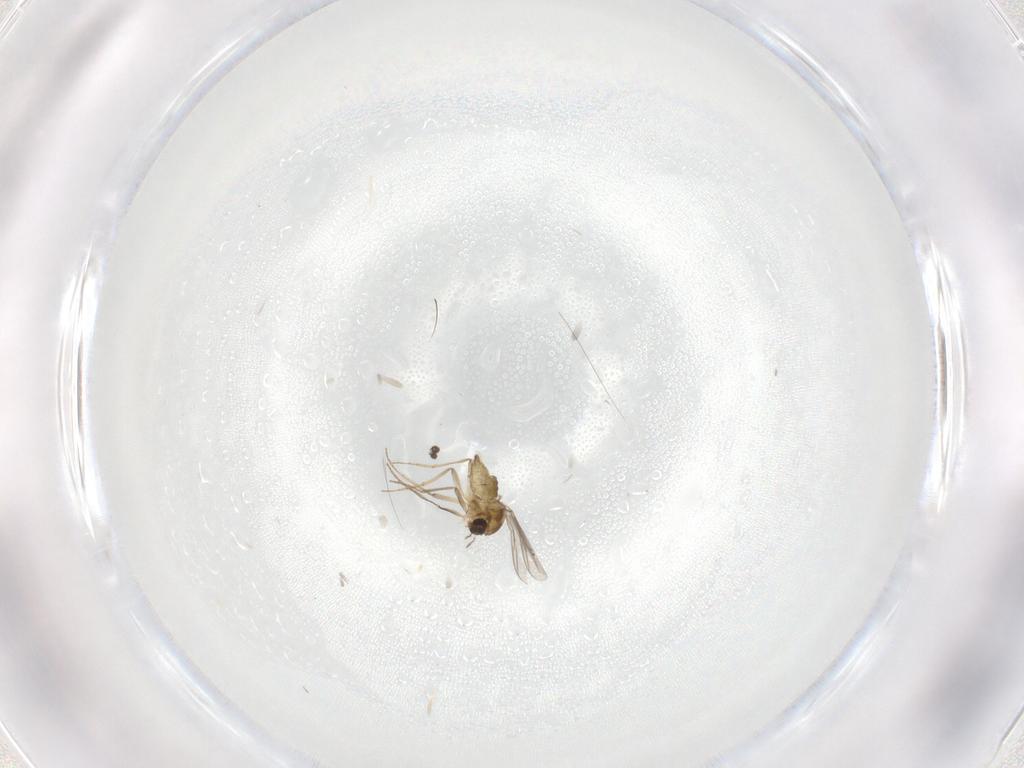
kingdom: Animalia
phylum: Arthropoda
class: Insecta
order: Diptera
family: Chironomidae
